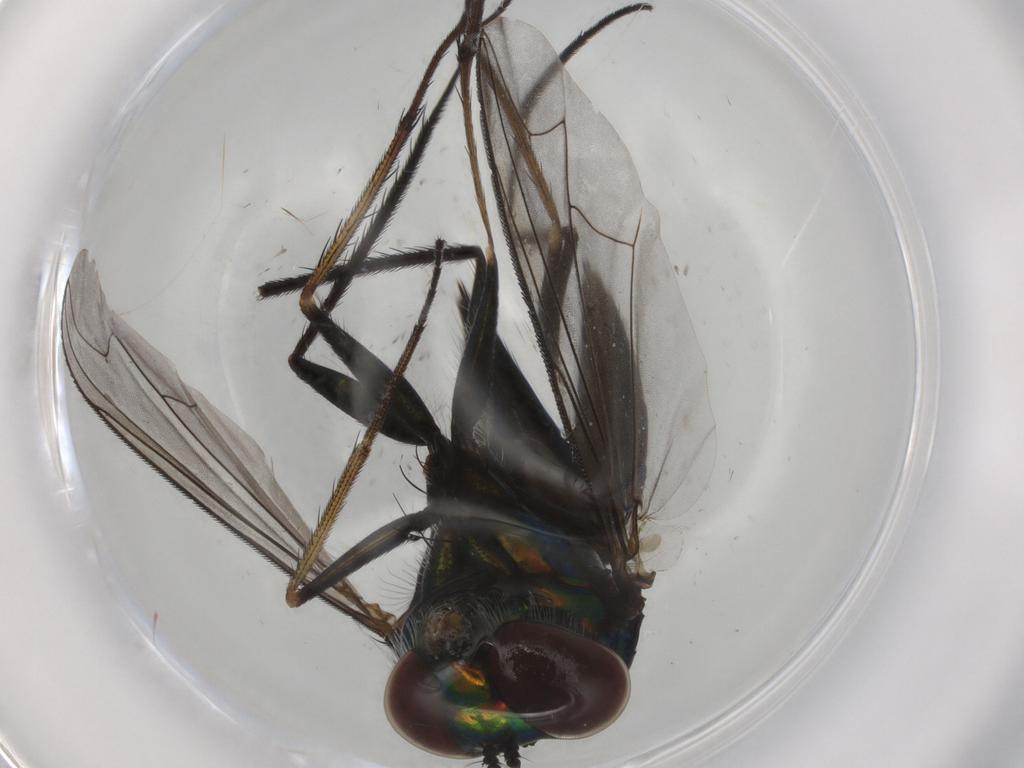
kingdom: Animalia
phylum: Arthropoda
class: Insecta
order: Diptera
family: Dolichopodidae
